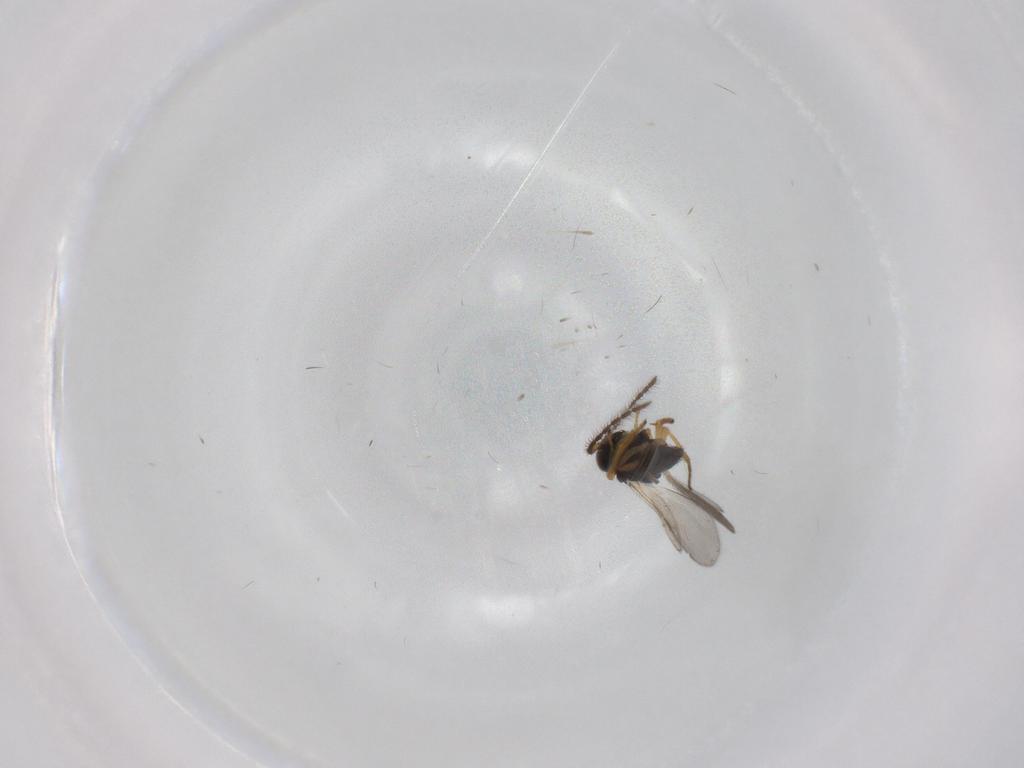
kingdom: Animalia
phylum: Arthropoda
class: Insecta
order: Hymenoptera
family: Encyrtidae
